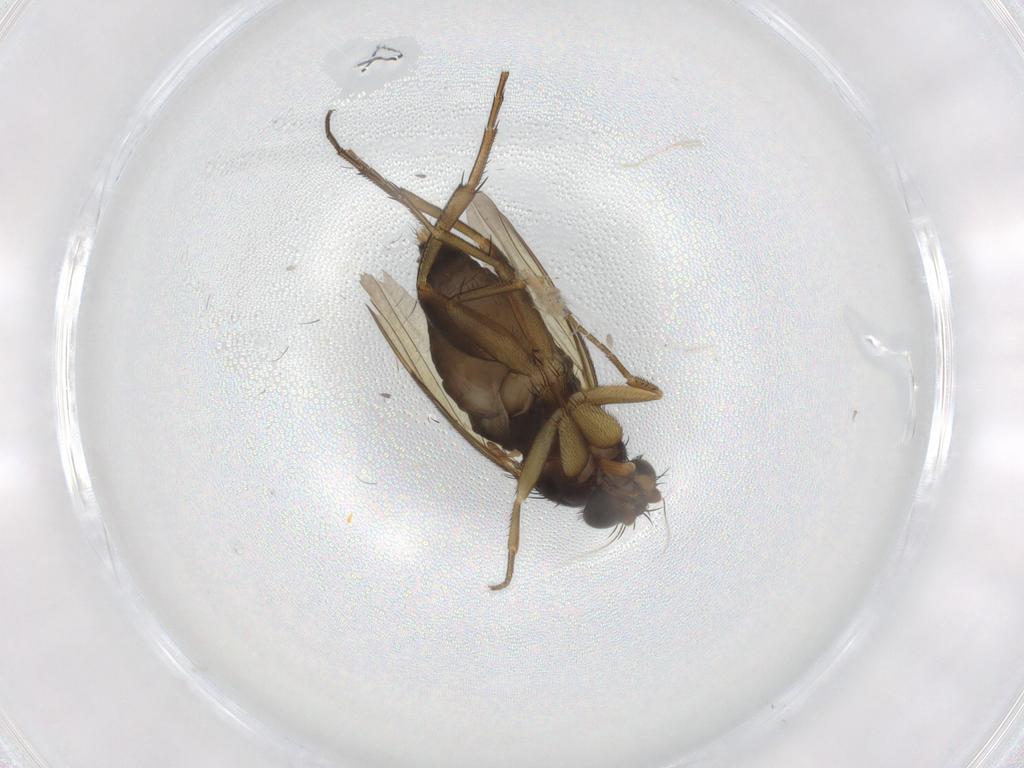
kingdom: Animalia
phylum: Arthropoda
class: Insecta
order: Diptera
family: Phoridae
